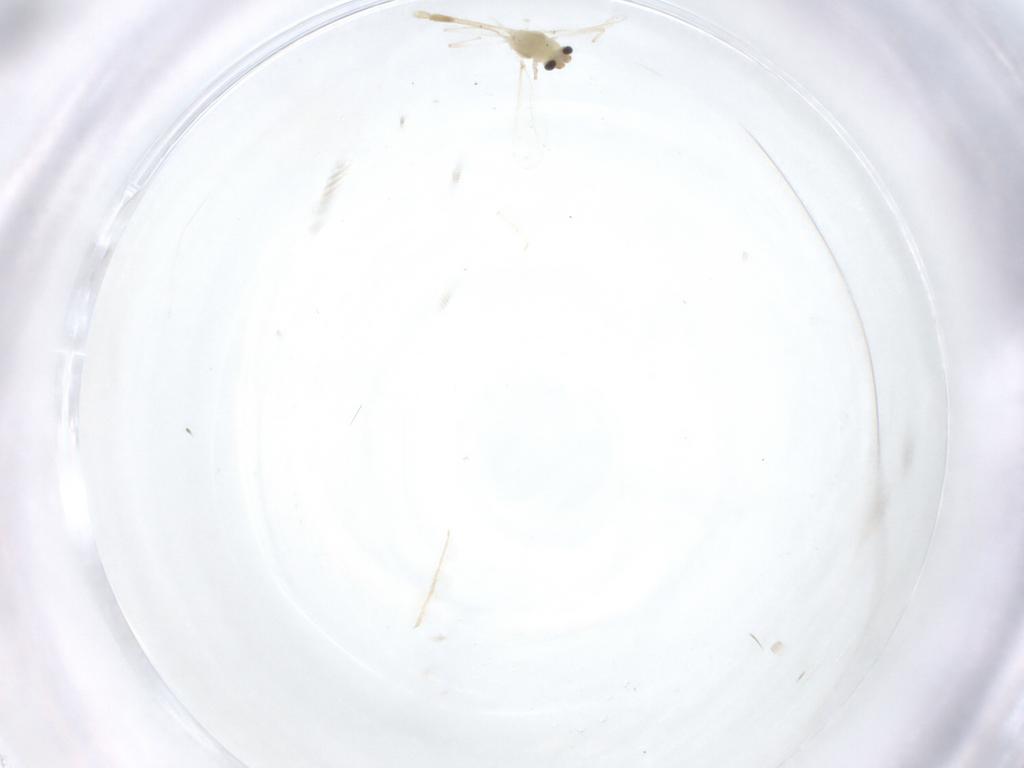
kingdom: Animalia
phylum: Arthropoda
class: Insecta
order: Diptera
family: Chironomidae
